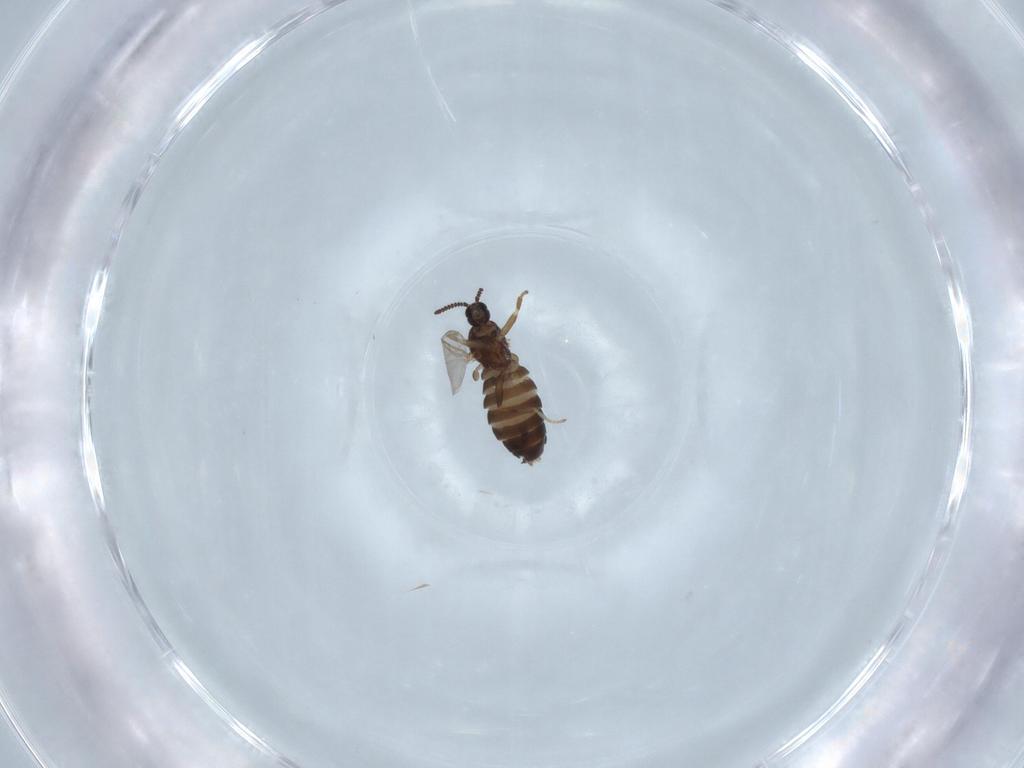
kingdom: Animalia
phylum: Arthropoda
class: Insecta
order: Diptera
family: Scatopsidae
